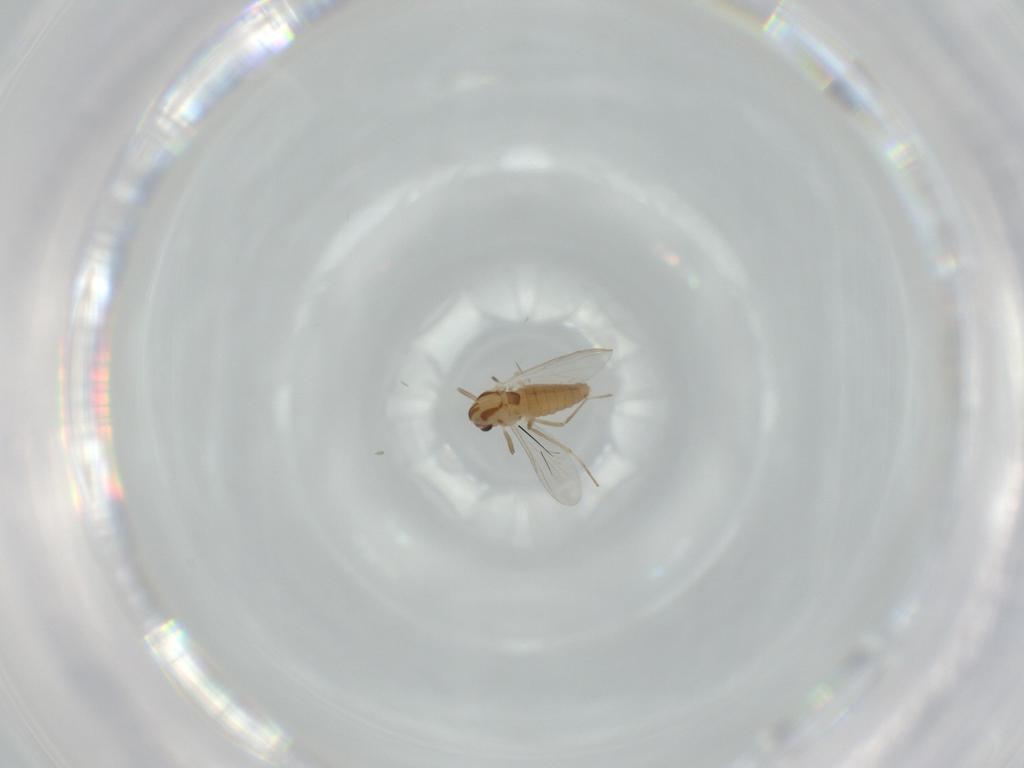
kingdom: Animalia
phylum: Arthropoda
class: Insecta
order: Diptera
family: Chironomidae
